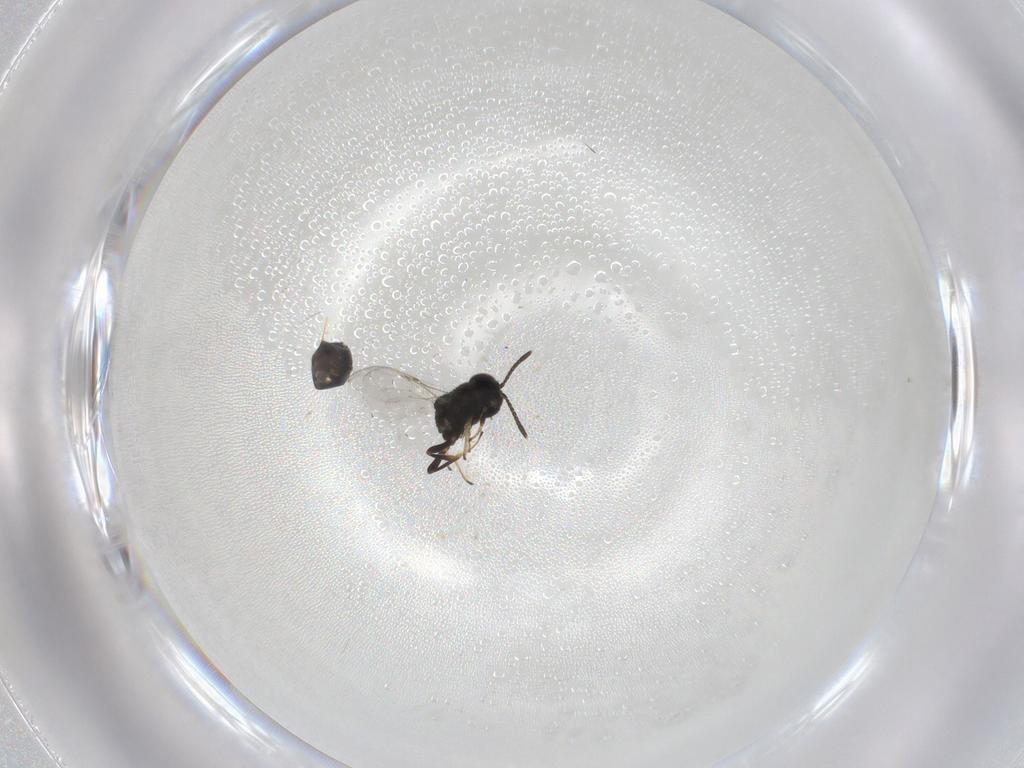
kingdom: Animalia
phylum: Arthropoda
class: Insecta
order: Hymenoptera
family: Encyrtidae
